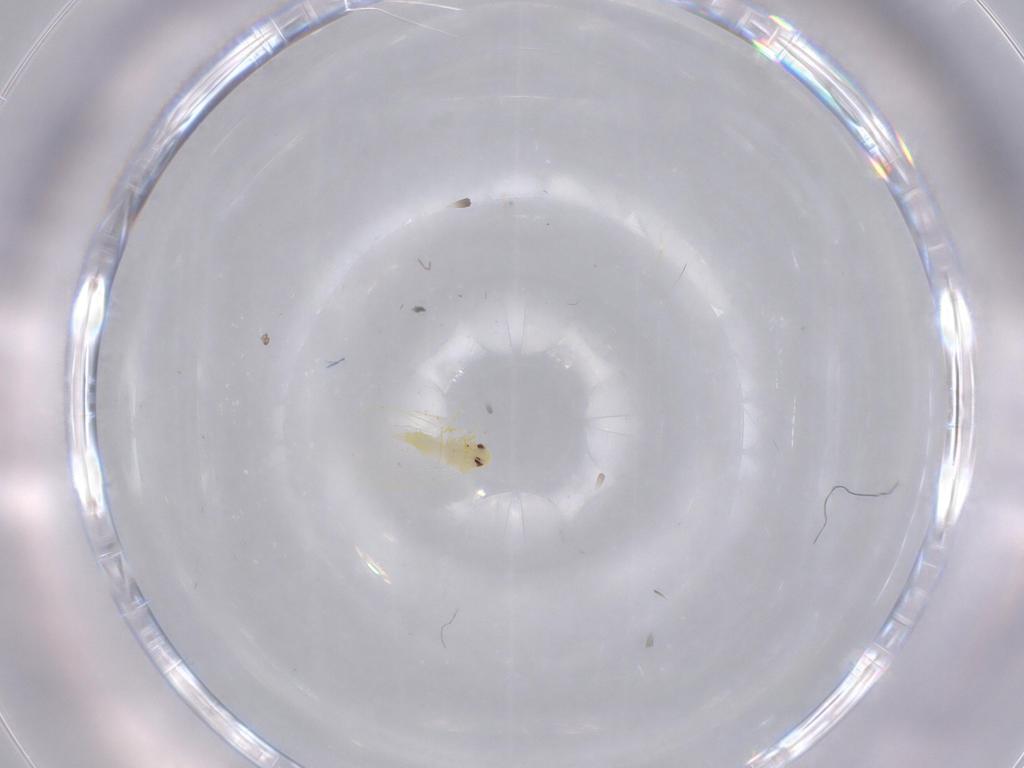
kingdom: Animalia
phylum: Arthropoda
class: Insecta
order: Hemiptera
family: Aleyrodidae
